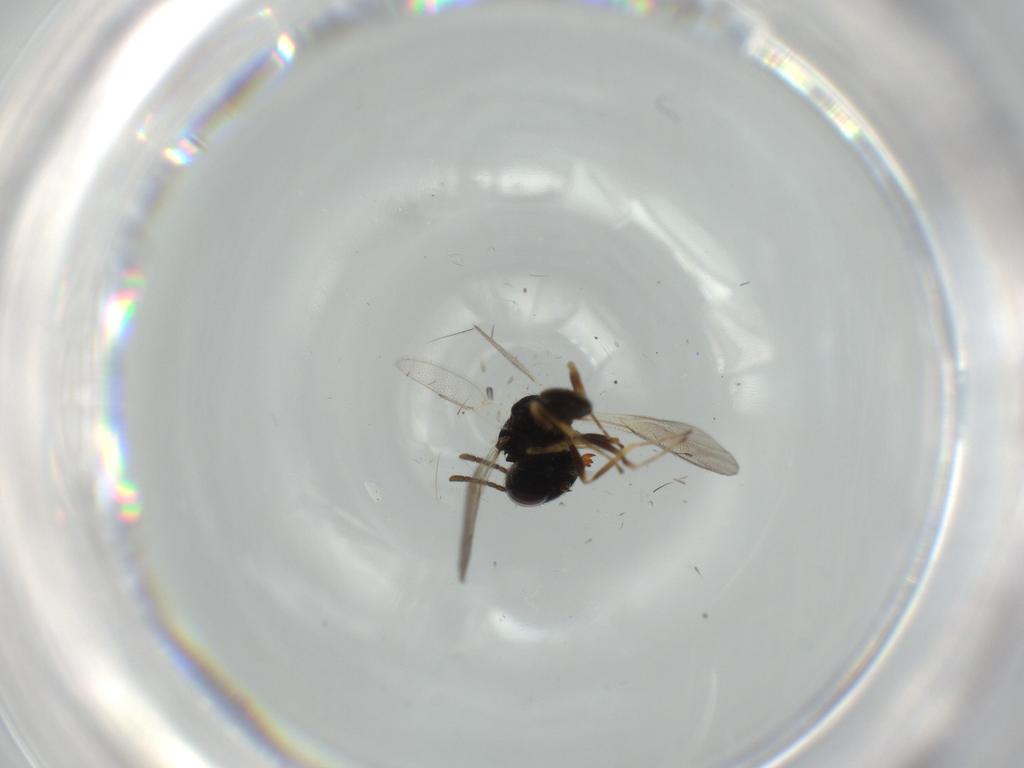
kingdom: Animalia
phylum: Arthropoda
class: Insecta
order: Hymenoptera
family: Pteromalidae
